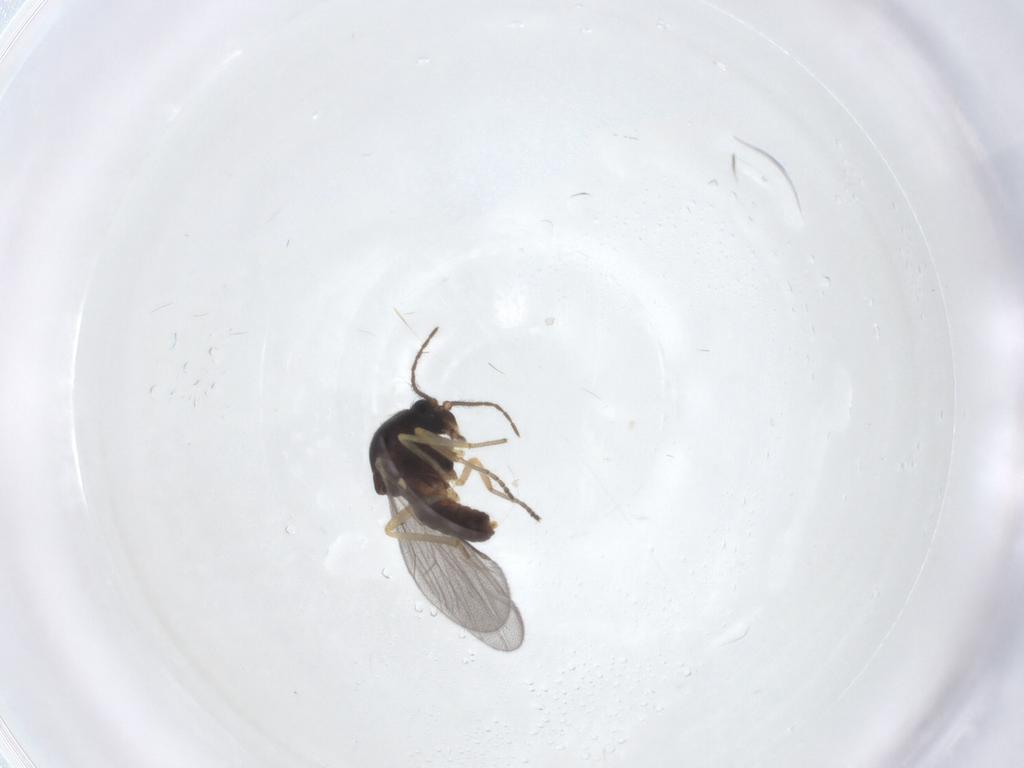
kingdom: Animalia
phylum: Arthropoda
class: Insecta
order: Diptera
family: Ceratopogonidae
